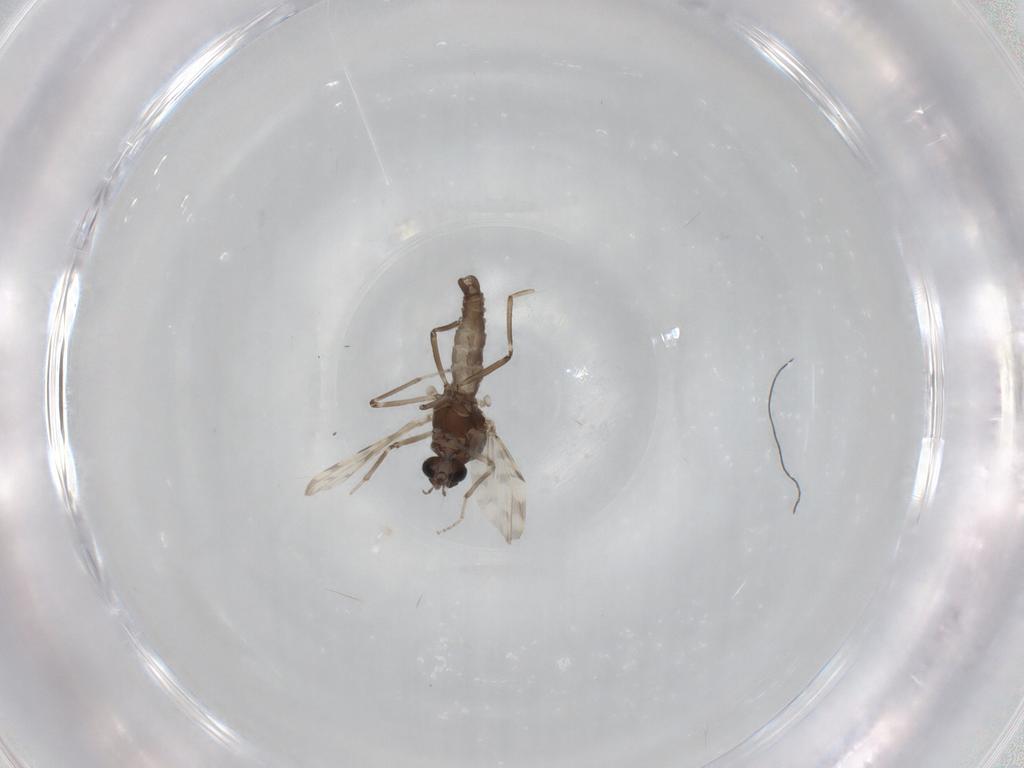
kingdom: Animalia
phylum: Arthropoda
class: Insecta
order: Diptera
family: Ceratopogonidae
